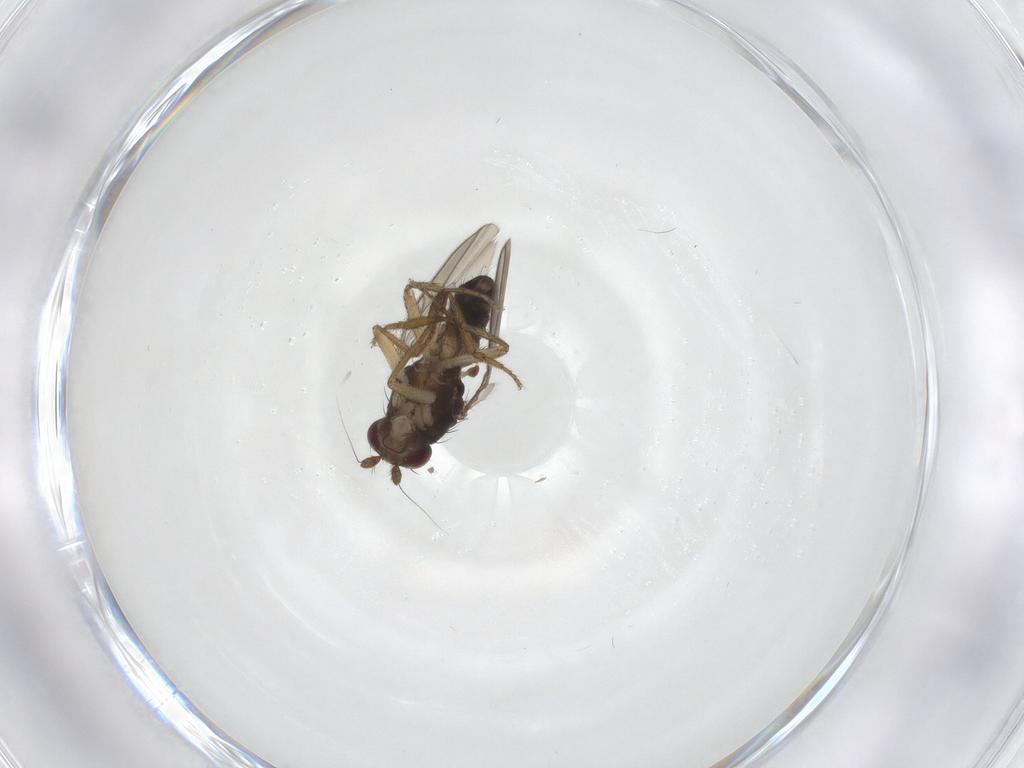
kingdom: Animalia
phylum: Arthropoda
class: Insecta
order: Diptera
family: Sphaeroceridae
